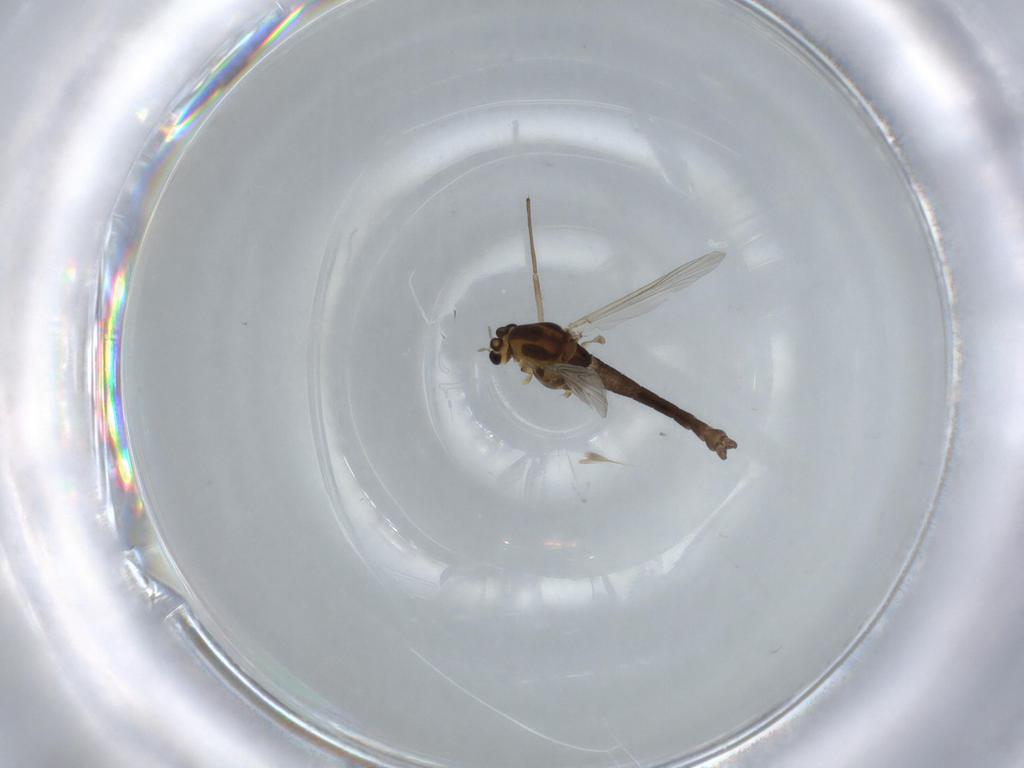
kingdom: Animalia
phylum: Arthropoda
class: Insecta
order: Diptera
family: Chironomidae
